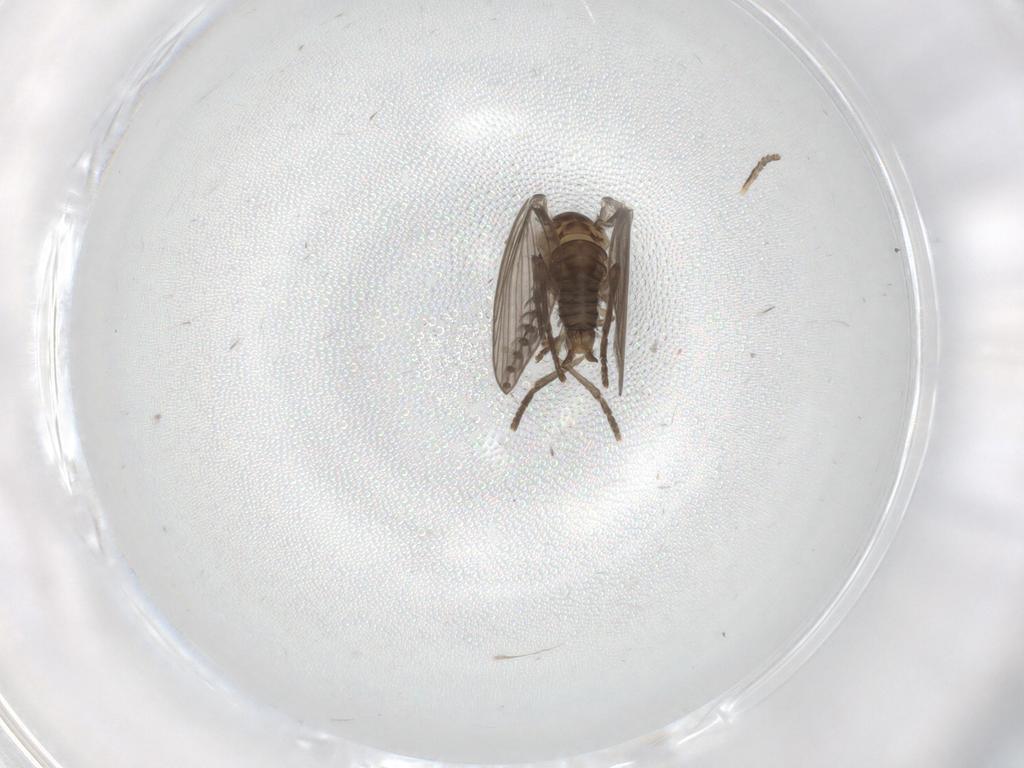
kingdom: Animalia
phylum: Arthropoda
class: Insecta
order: Diptera
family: Psychodidae
